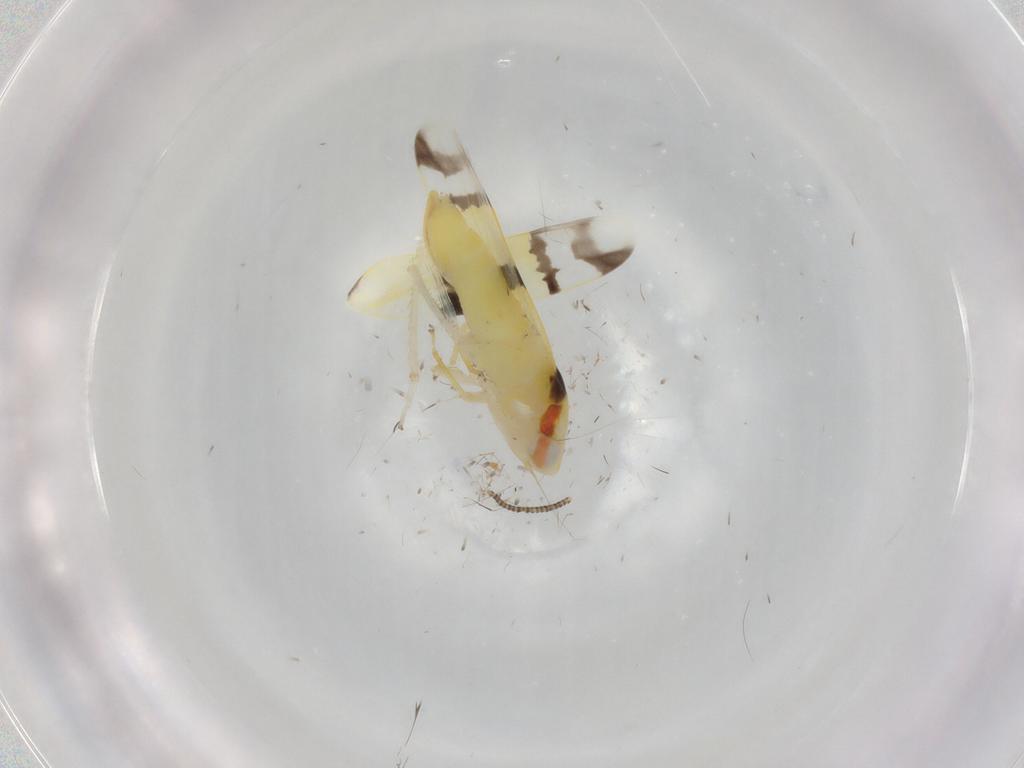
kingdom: Animalia
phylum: Arthropoda
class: Insecta
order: Hemiptera
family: Cicadellidae
